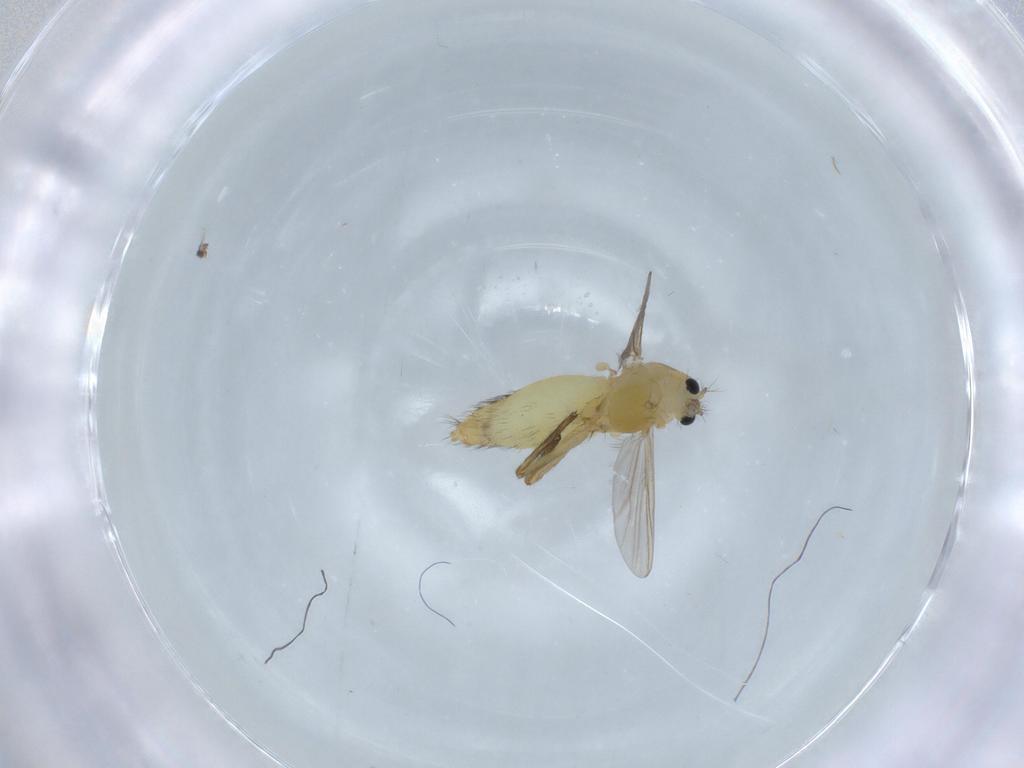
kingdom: Animalia
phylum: Arthropoda
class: Insecta
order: Diptera
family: Chironomidae
